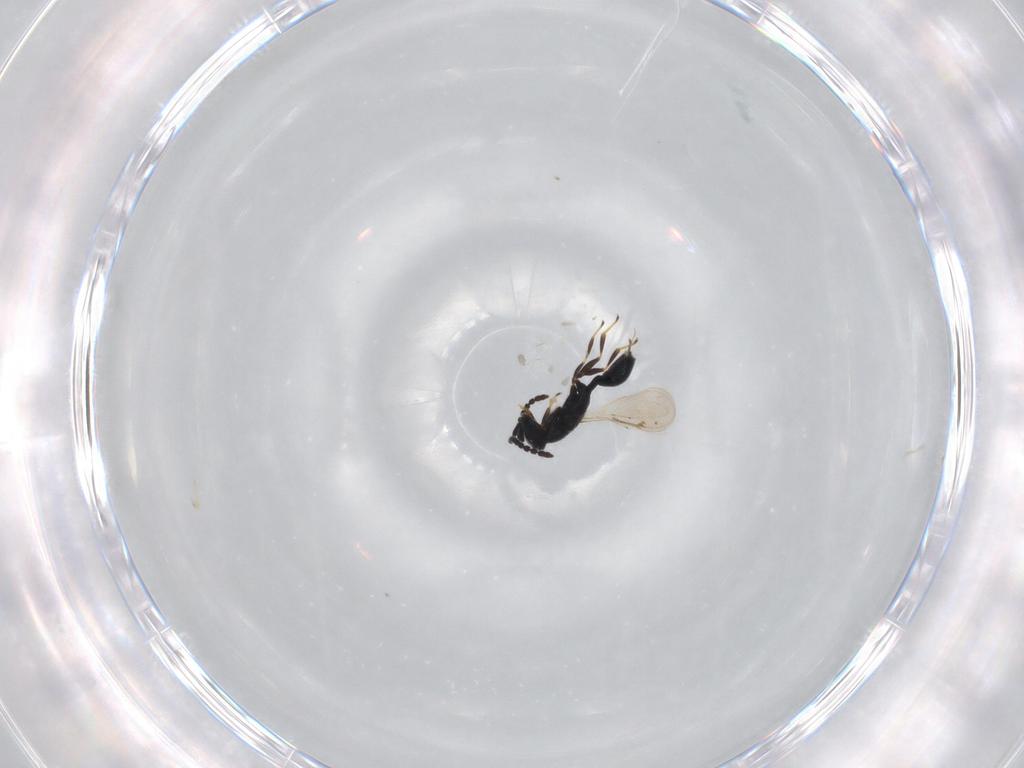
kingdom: Animalia
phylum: Arthropoda
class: Insecta
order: Hymenoptera
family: Spalangiidae
